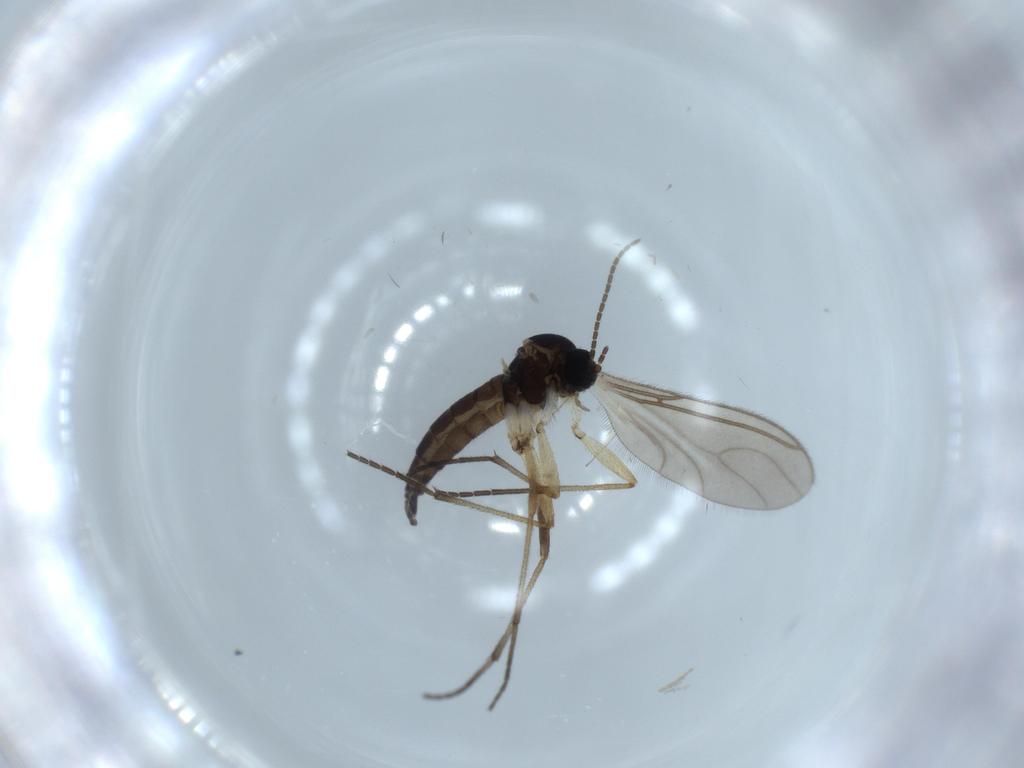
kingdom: Animalia
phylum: Arthropoda
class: Insecta
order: Diptera
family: Sciaridae
